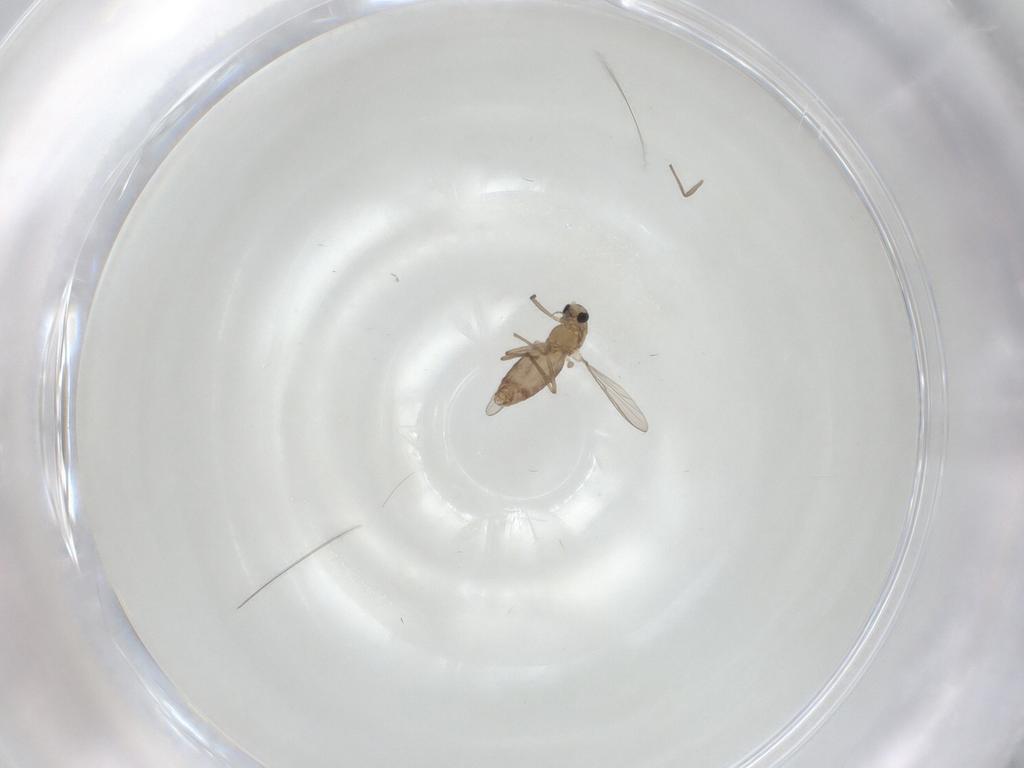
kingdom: Animalia
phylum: Arthropoda
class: Insecta
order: Diptera
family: Chironomidae
